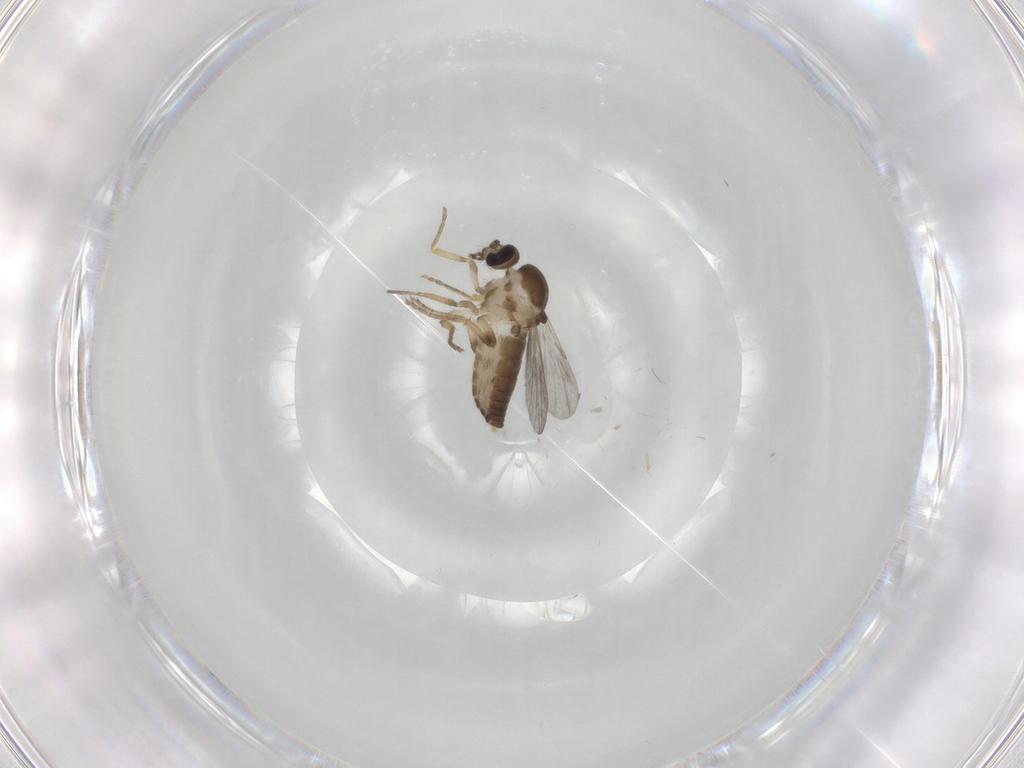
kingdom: Animalia
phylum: Arthropoda
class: Insecta
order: Diptera
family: Ceratopogonidae
